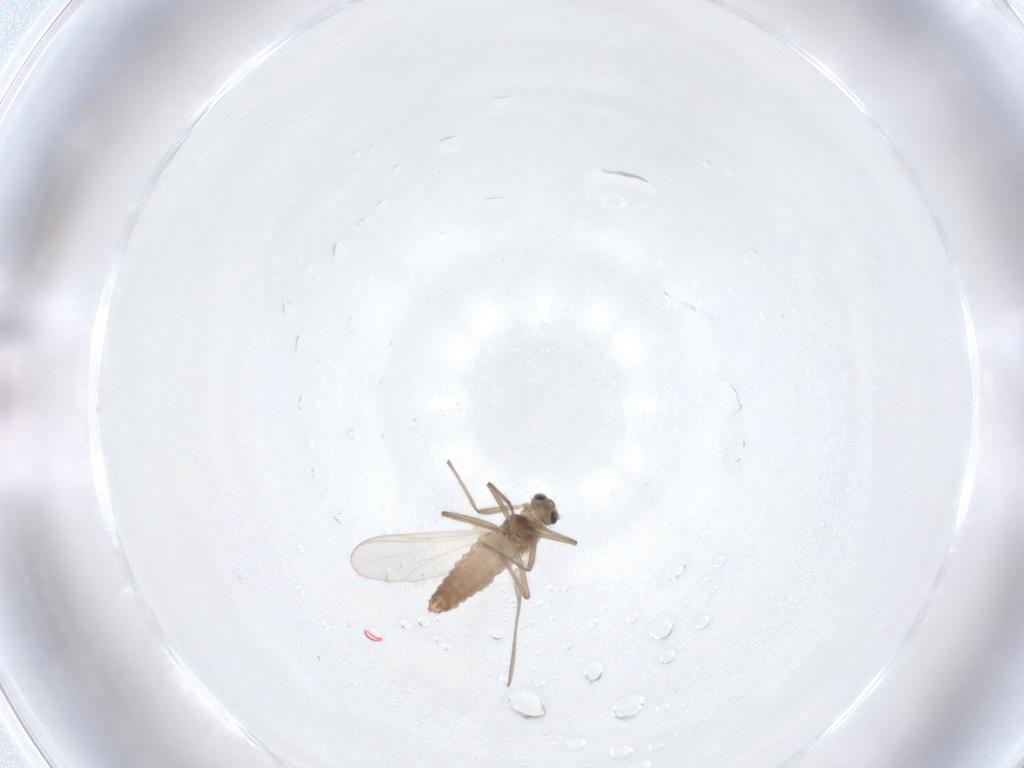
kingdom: Animalia
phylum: Arthropoda
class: Insecta
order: Diptera
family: Chironomidae
